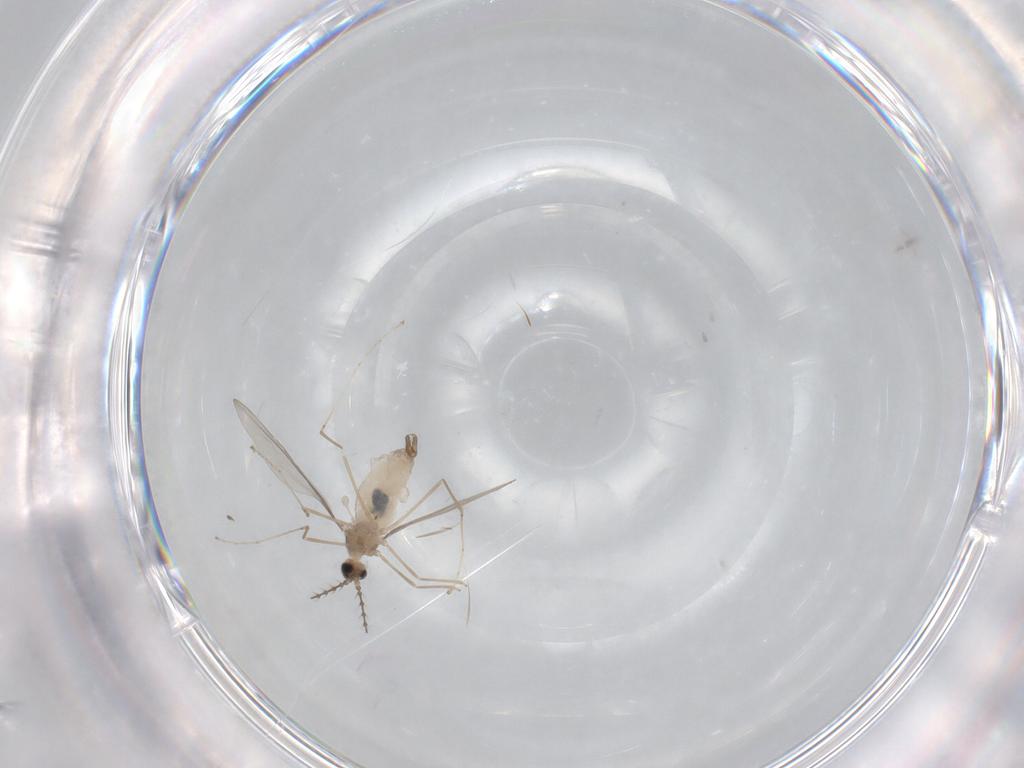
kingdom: Animalia
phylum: Arthropoda
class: Insecta
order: Diptera
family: Cecidomyiidae
